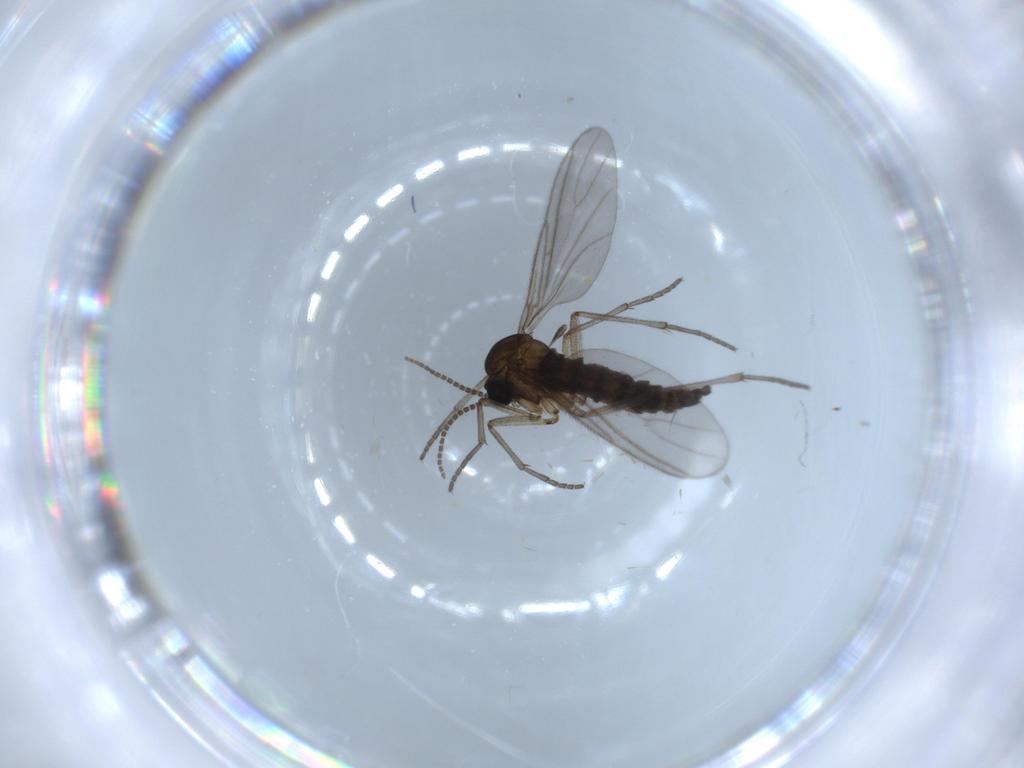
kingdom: Animalia
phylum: Arthropoda
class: Insecta
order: Diptera
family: Sciaridae
